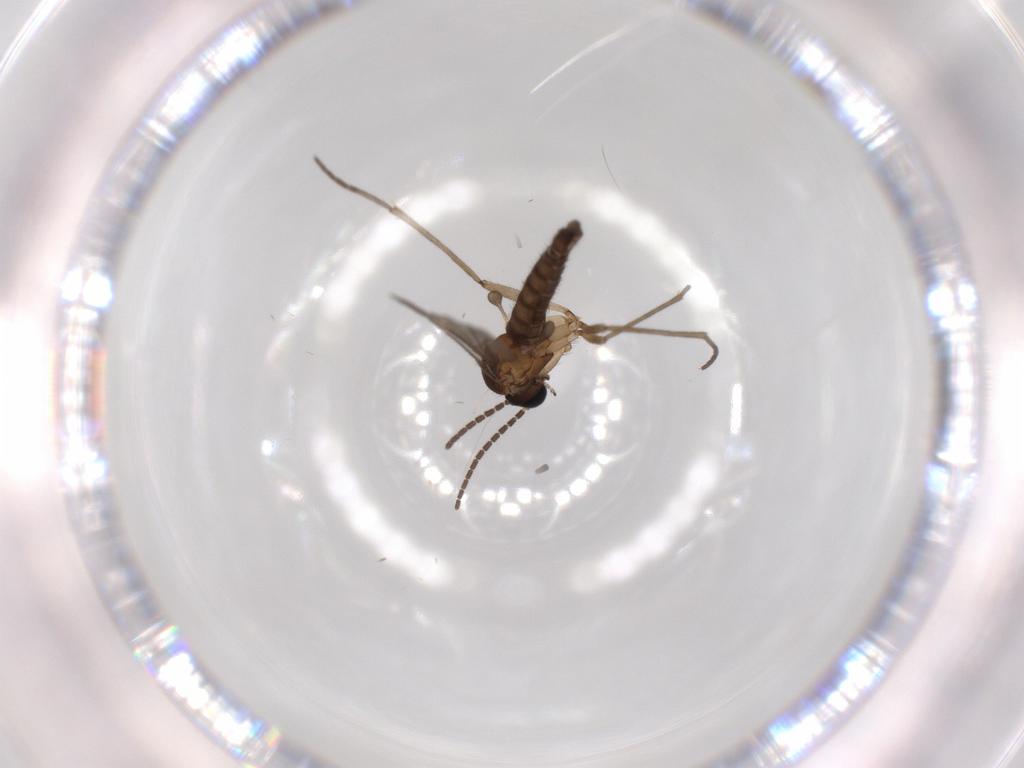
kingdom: Animalia
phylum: Arthropoda
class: Insecta
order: Diptera
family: Sciaridae
